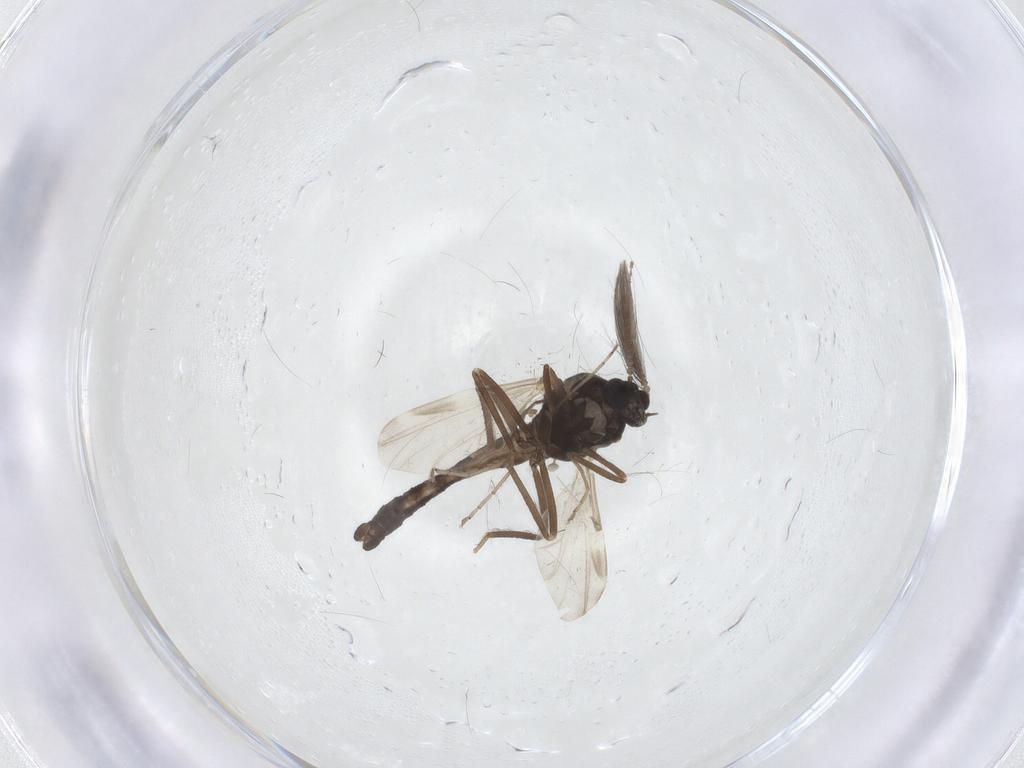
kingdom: Animalia
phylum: Arthropoda
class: Insecta
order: Diptera
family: Ceratopogonidae
